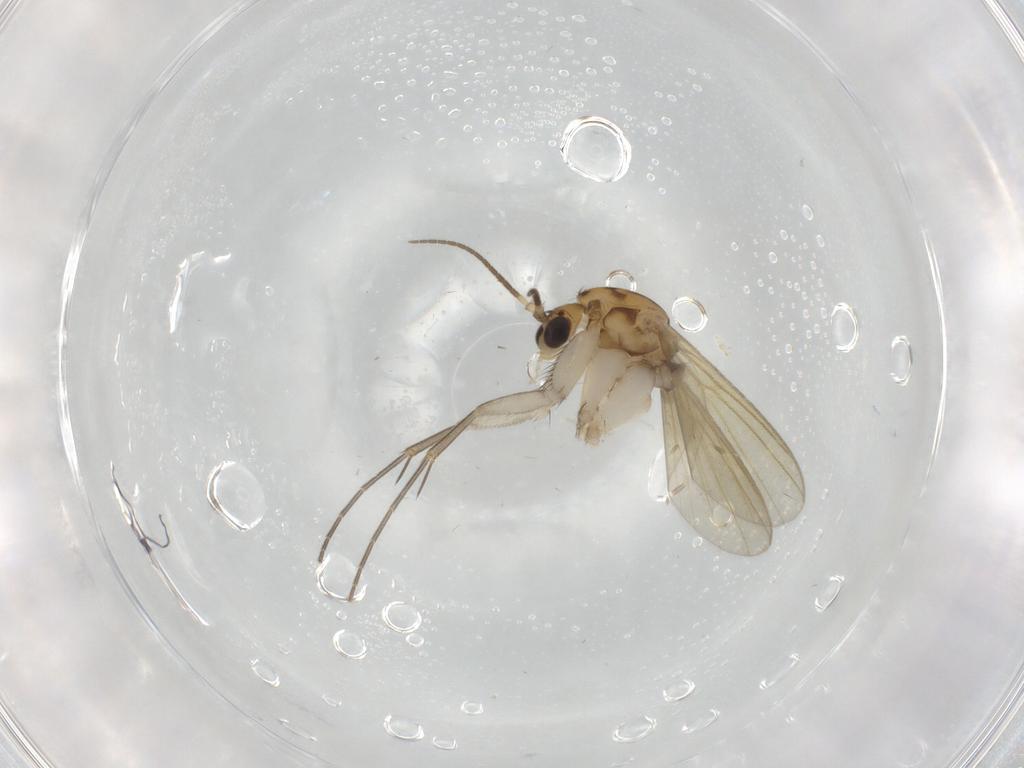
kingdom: Animalia
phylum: Arthropoda
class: Insecta
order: Diptera
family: Mycetophilidae
